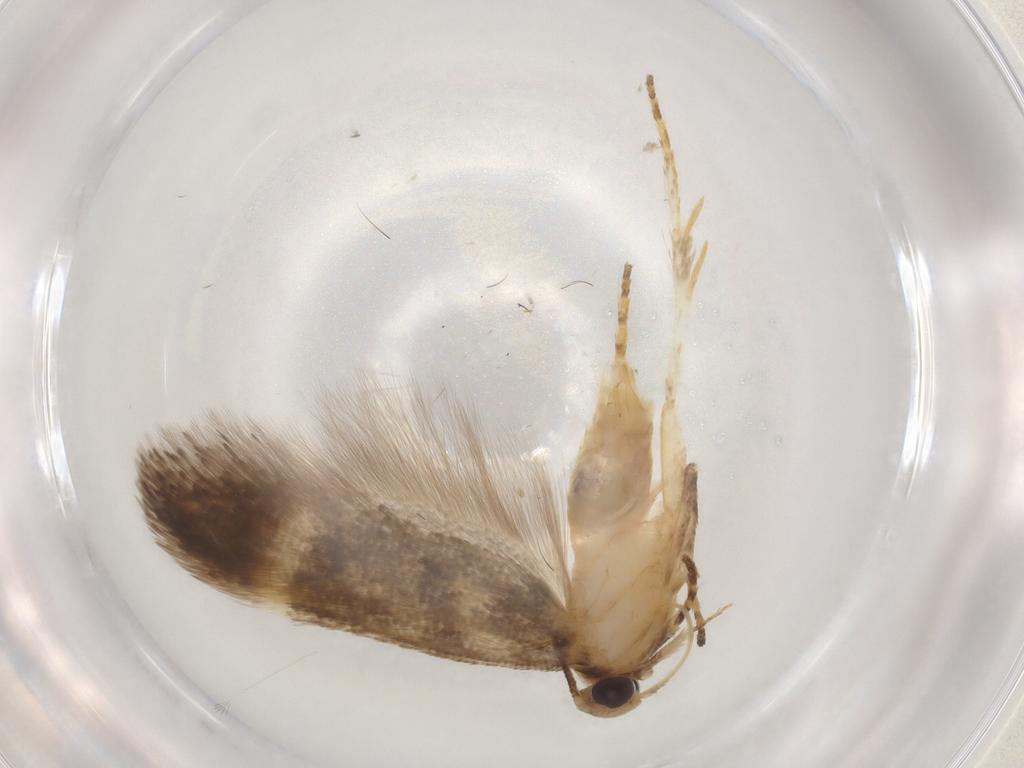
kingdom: Animalia
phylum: Arthropoda
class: Insecta
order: Lepidoptera
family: Gelechiidae
